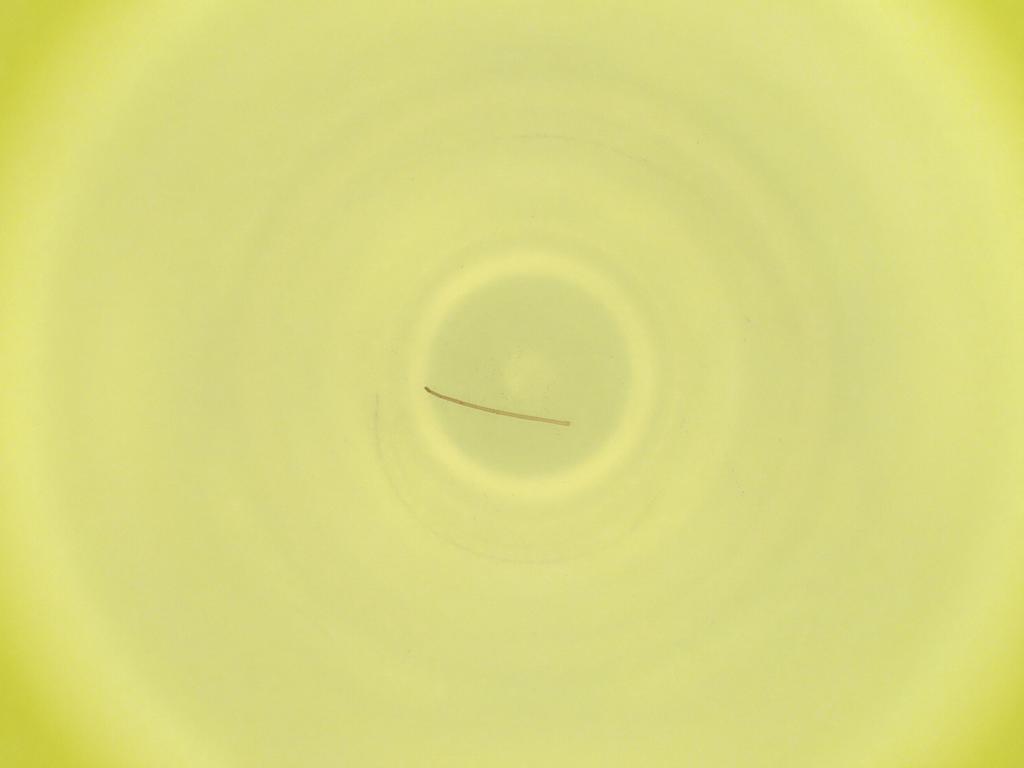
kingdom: Animalia
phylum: Arthropoda
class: Insecta
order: Diptera
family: Cecidomyiidae
